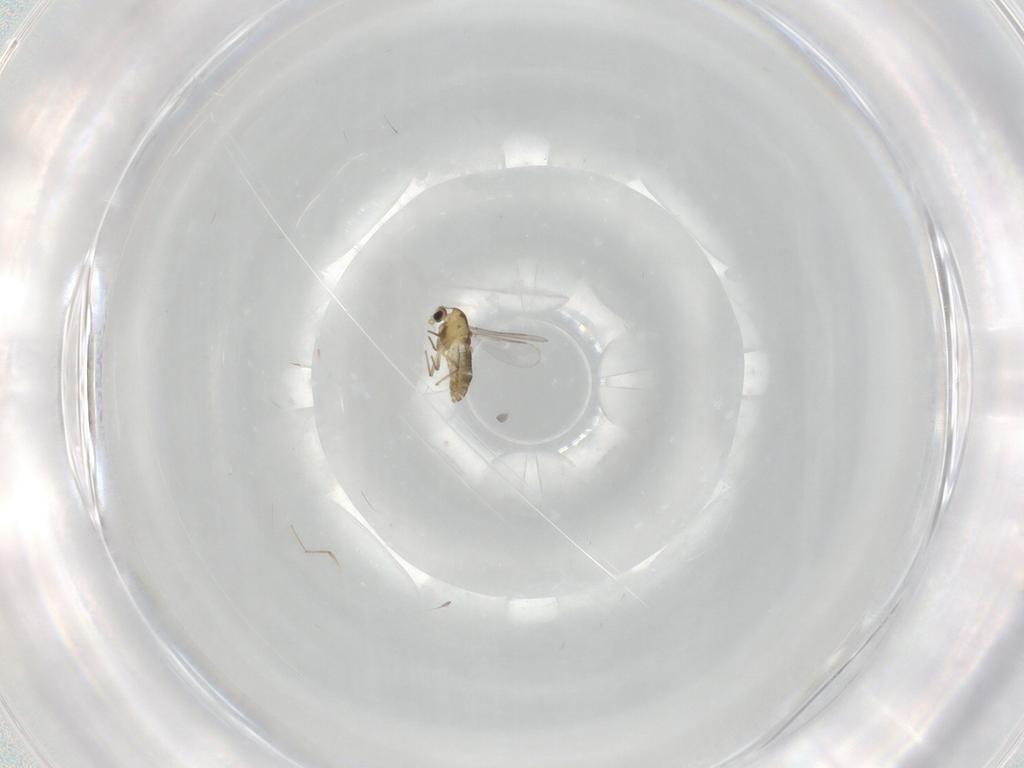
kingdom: Animalia
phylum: Arthropoda
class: Insecta
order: Diptera
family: Chironomidae
